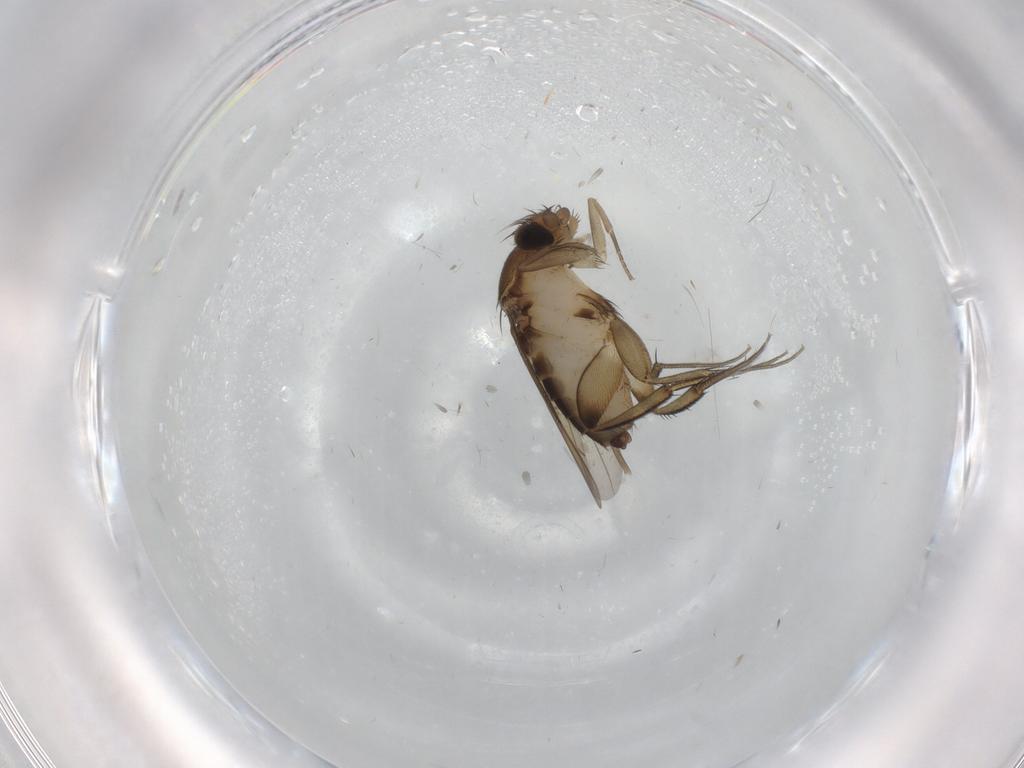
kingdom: Animalia
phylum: Arthropoda
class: Insecta
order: Diptera
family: Phoridae
